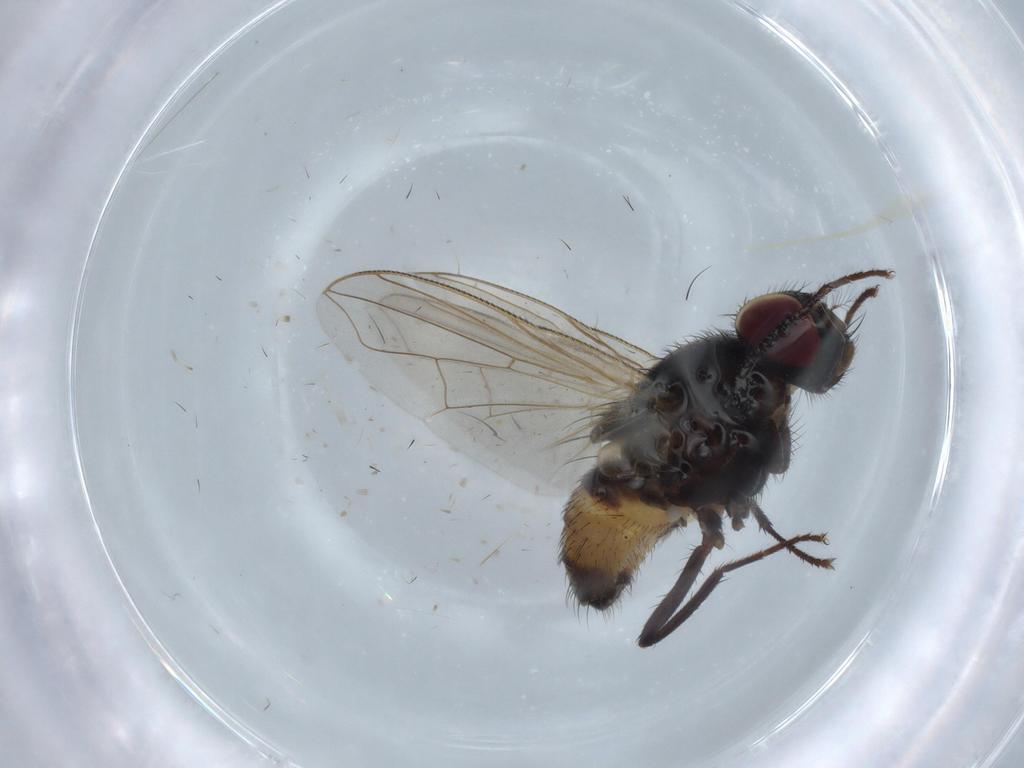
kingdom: Animalia
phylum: Arthropoda
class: Insecta
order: Diptera
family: Muscidae
